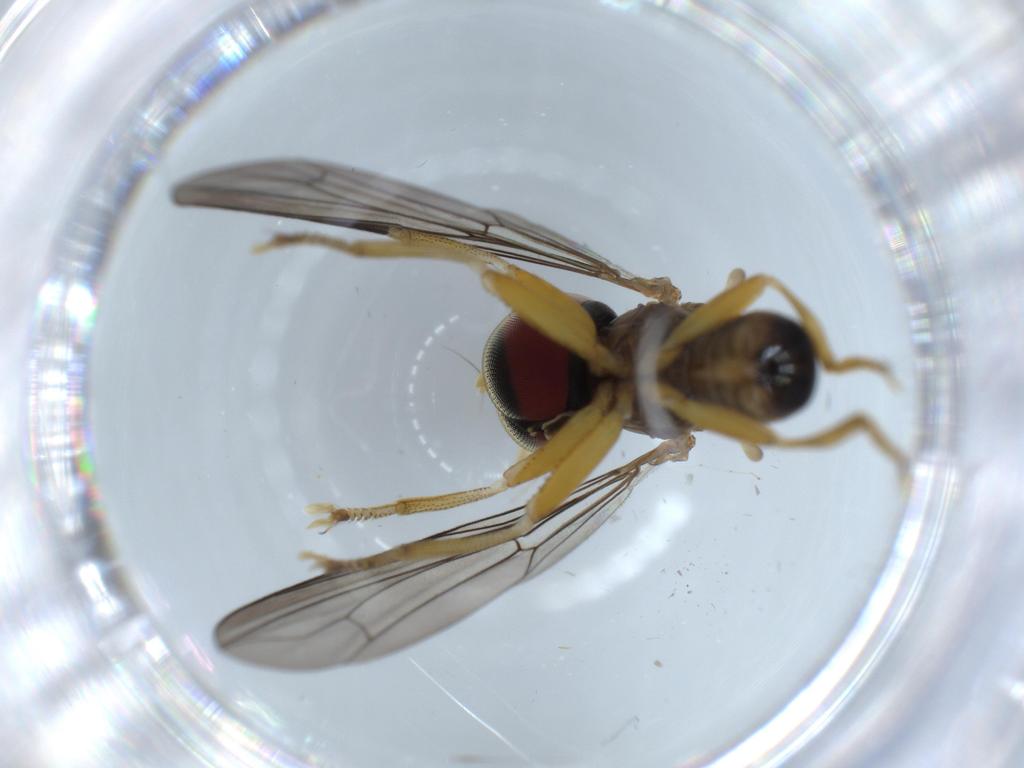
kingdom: Animalia
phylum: Arthropoda
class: Insecta
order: Diptera
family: Pipunculidae
